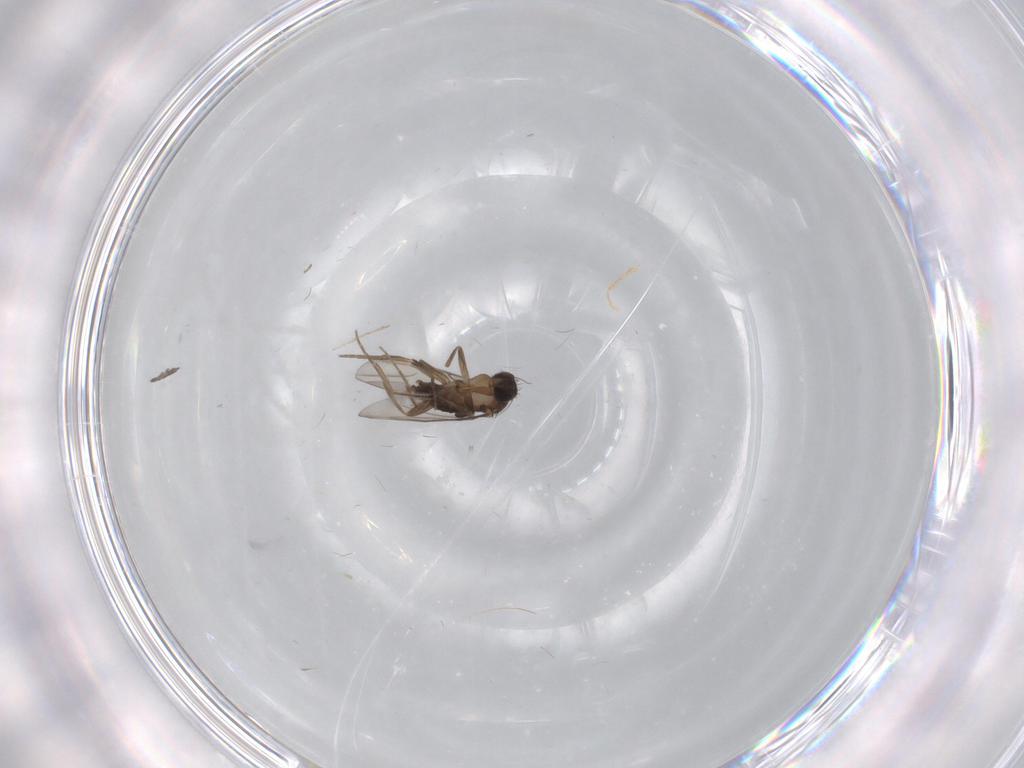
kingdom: Animalia
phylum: Arthropoda
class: Insecta
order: Diptera
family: Phoridae
